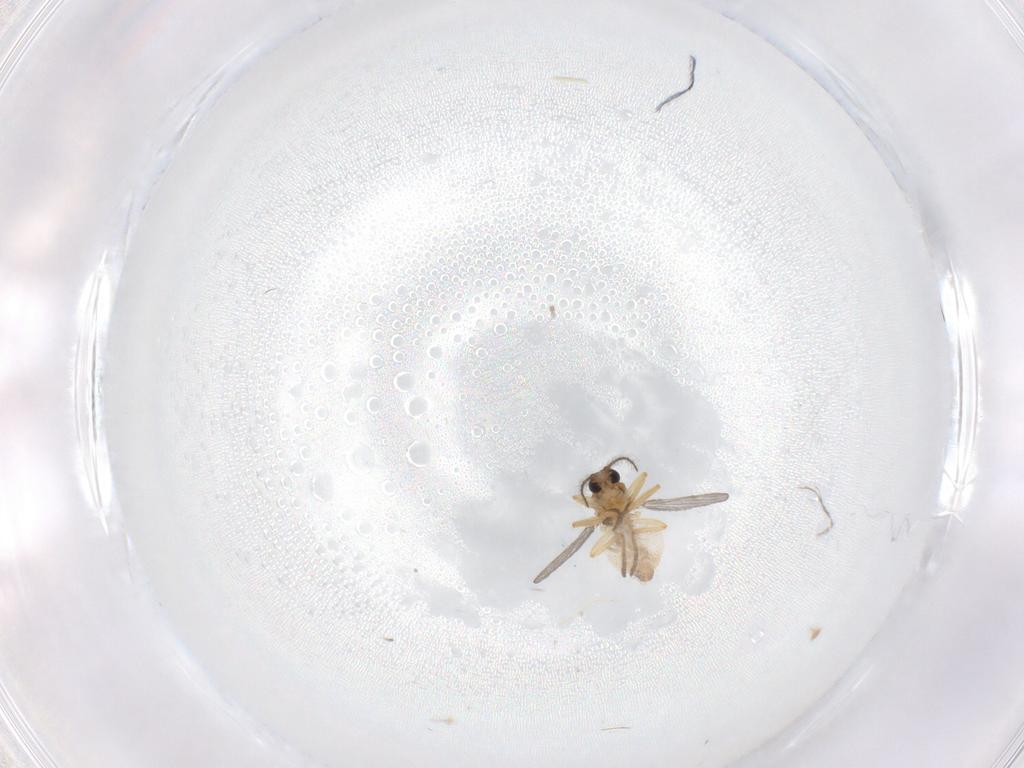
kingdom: Animalia
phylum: Arthropoda
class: Insecta
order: Diptera
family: Ceratopogonidae
